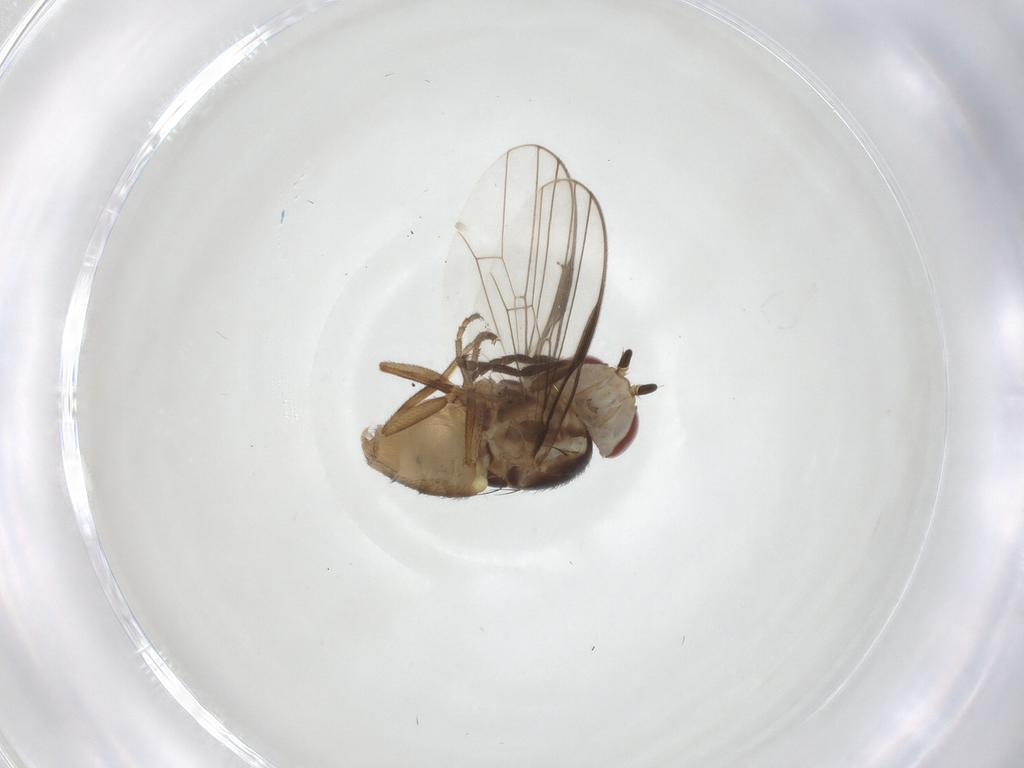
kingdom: Animalia
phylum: Arthropoda
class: Insecta
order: Diptera
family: Chamaemyiidae
